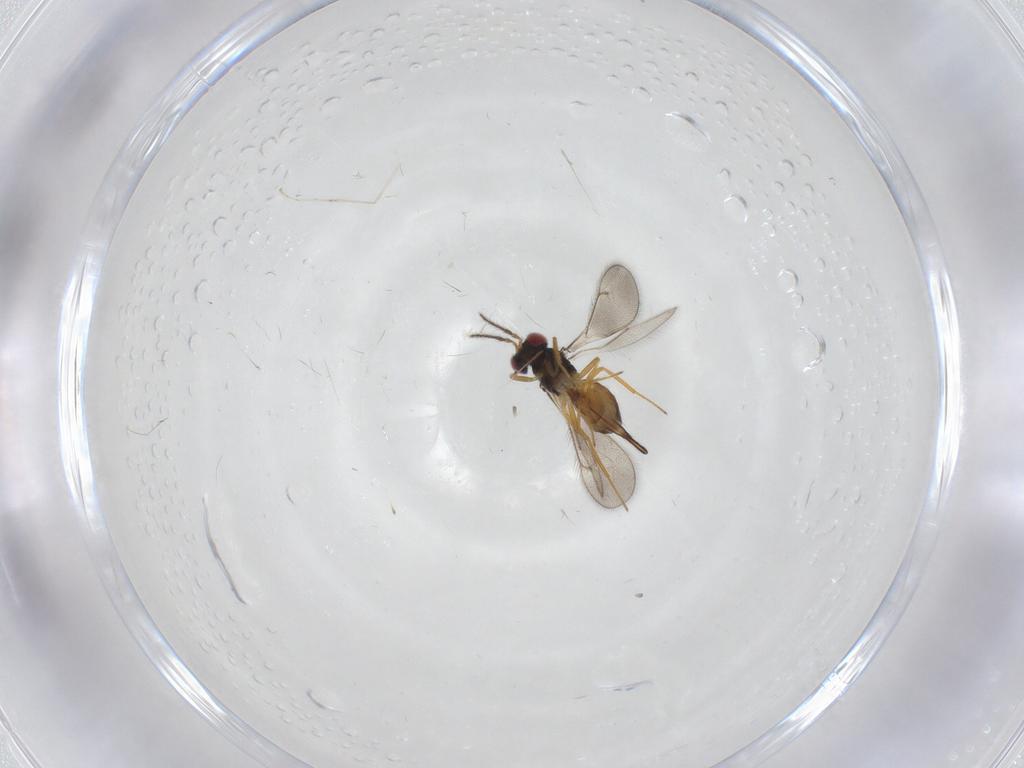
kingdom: Animalia
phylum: Arthropoda
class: Insecta
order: Hymenoptera
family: Eulophidae
